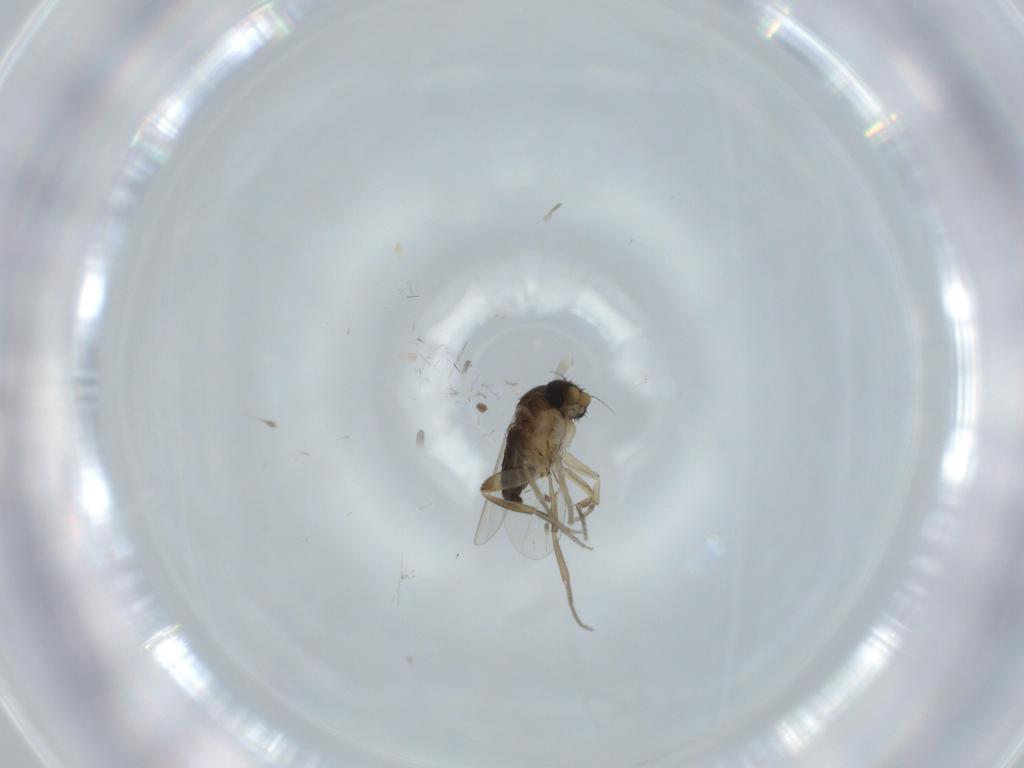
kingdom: Animalia
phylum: Arthropoda
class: Insecta
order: Diptera
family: Phoridae
